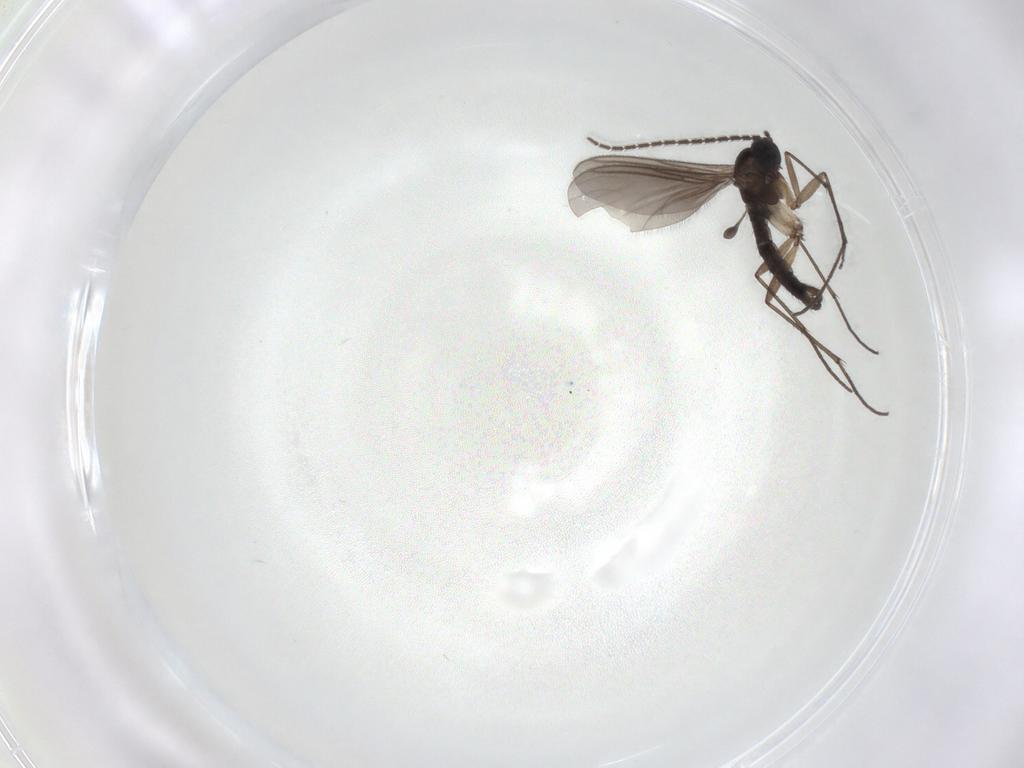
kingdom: Animalia
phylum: Arthropoda
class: Insecta
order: Diptera
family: Sciaridae
